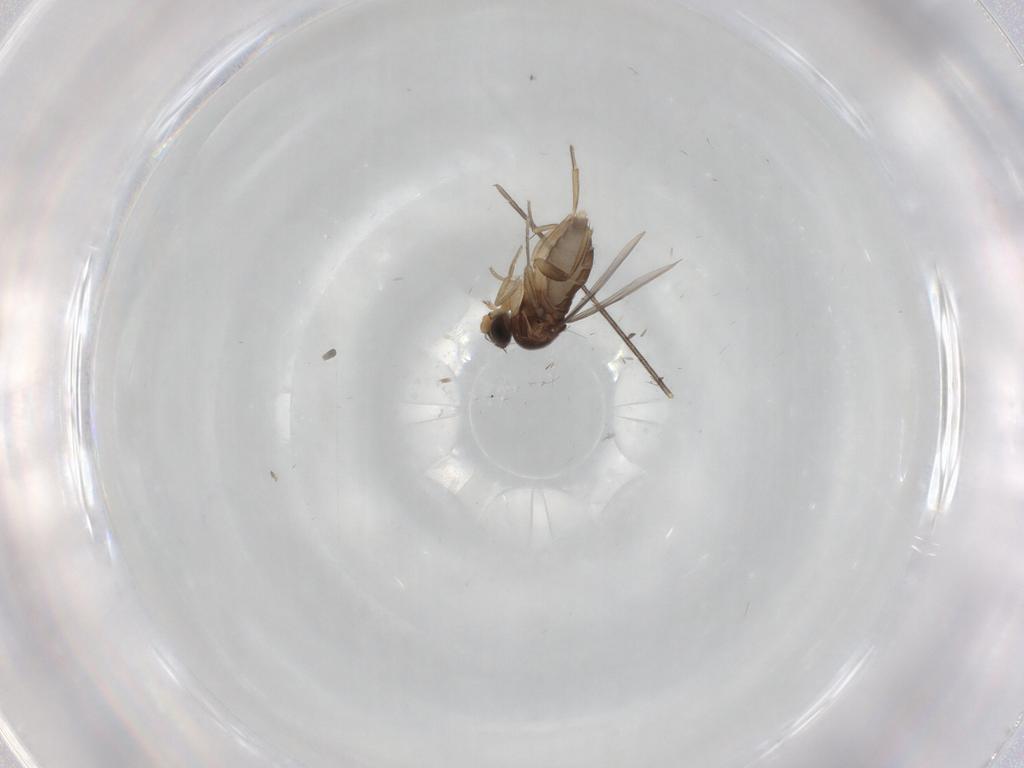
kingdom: Animalia
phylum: Arthropoda
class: Insecta
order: Diptera
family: Phoridae
